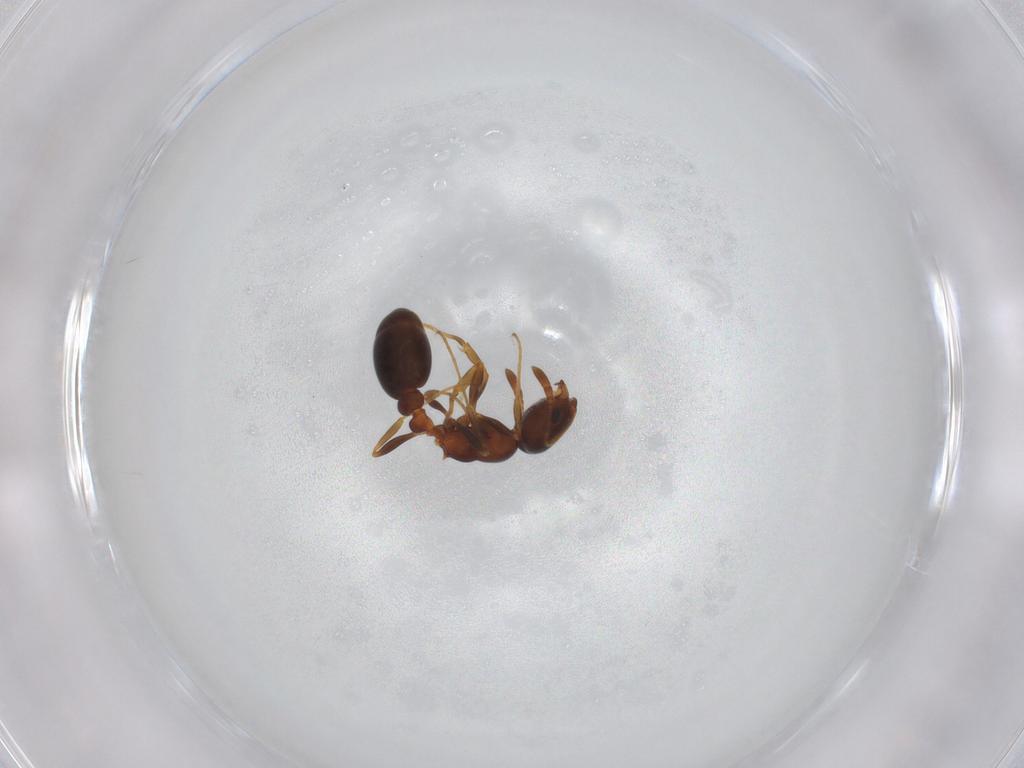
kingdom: Animalia
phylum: Arthropoda
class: Insecta
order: Hymenoptera
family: Formicidae
